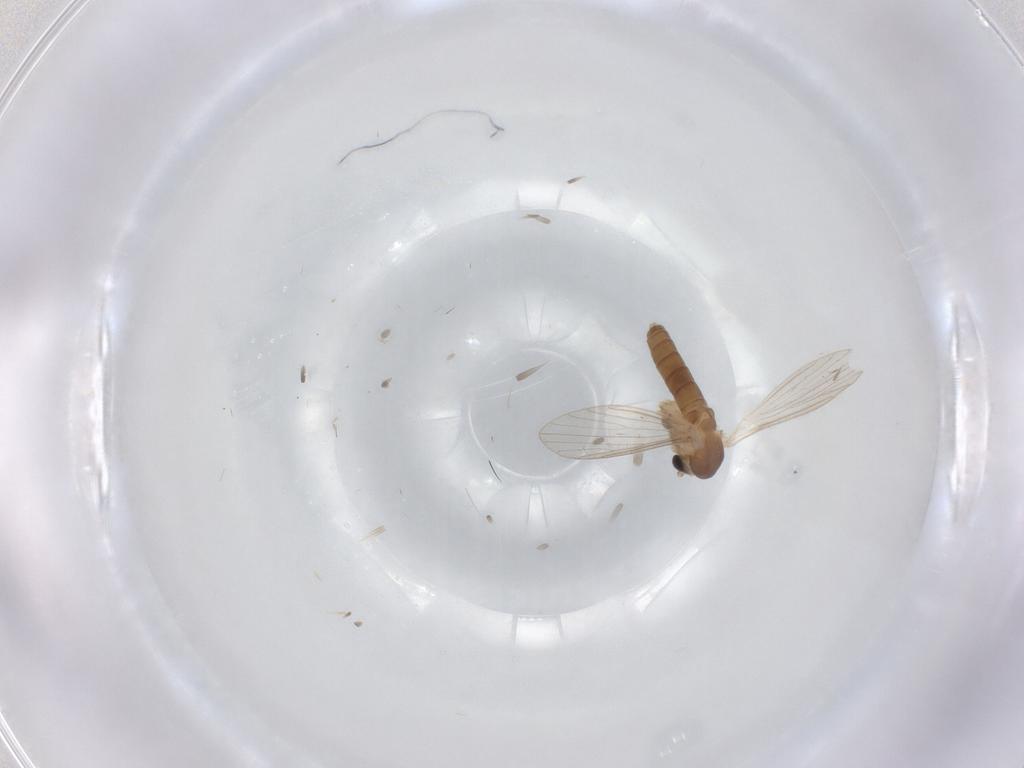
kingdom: Animalia
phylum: Arthropoda
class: Insecta
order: Diptera
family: Psychodidae
